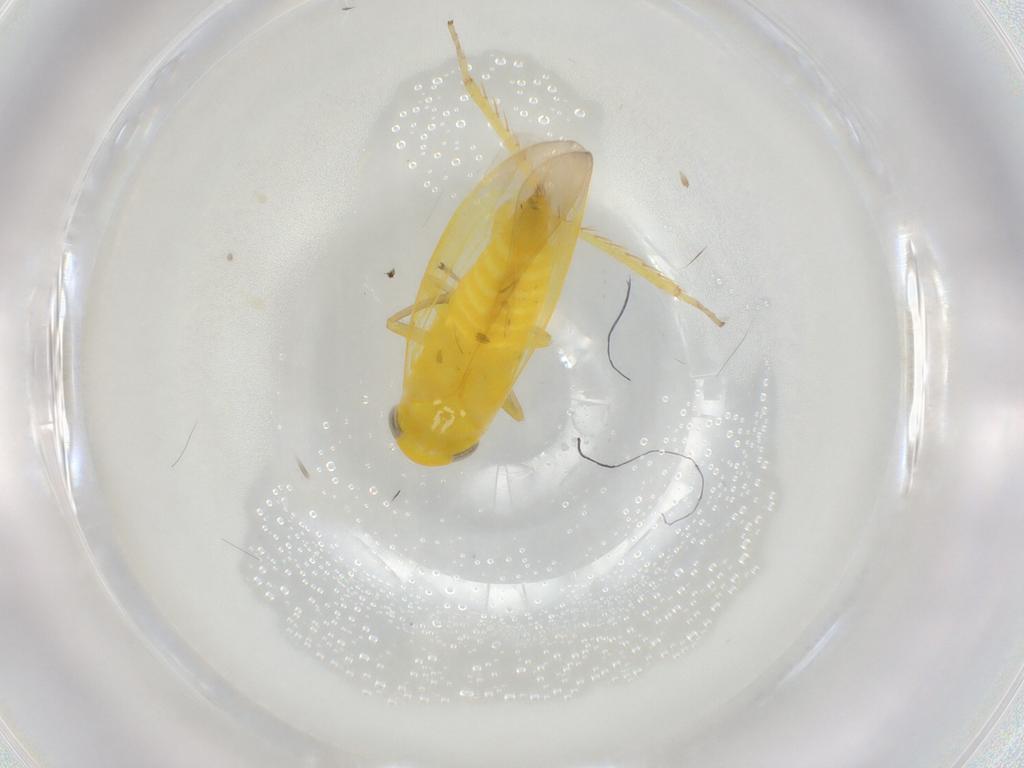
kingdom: Animalia
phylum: Arthropoda
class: Insecta
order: Hemiptera
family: Cicadellidae
